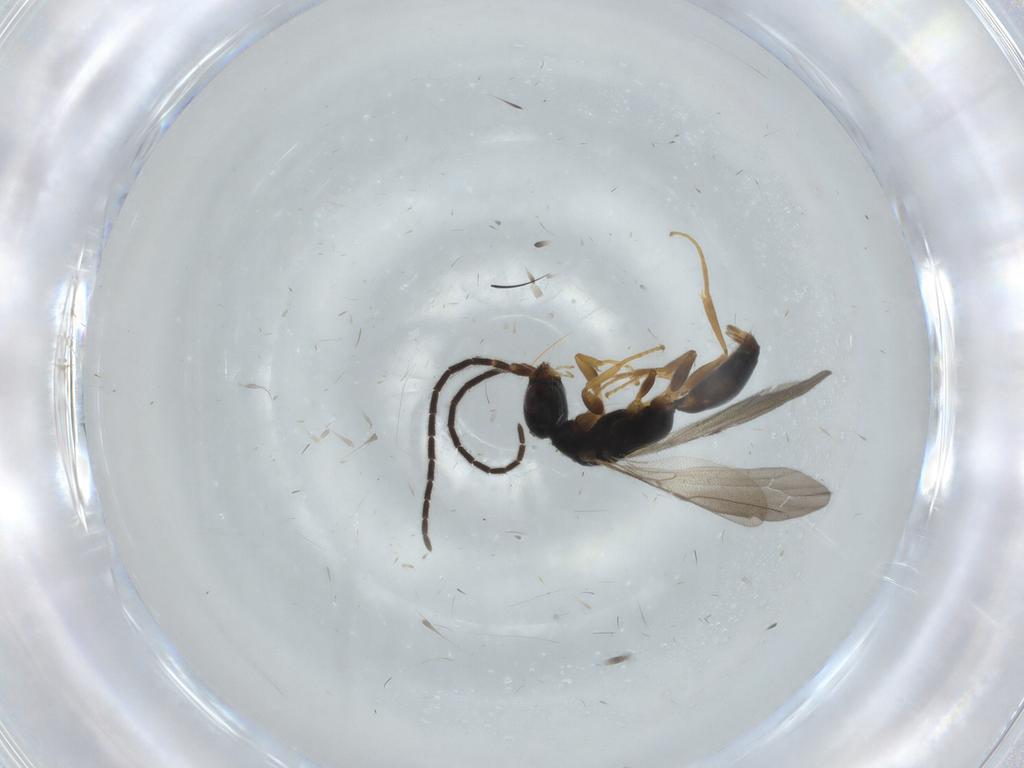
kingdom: Animalia
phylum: Arthropoda
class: Insecta
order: Hymenoptera
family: Bethylidae
